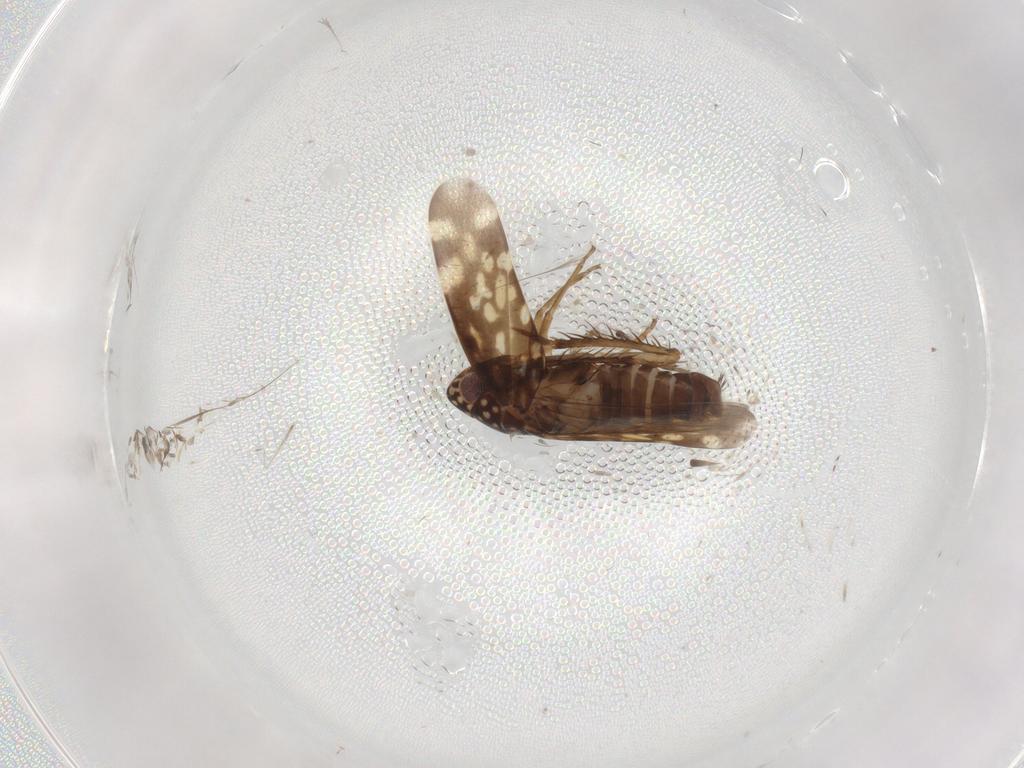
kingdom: Animalia
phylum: Arthropoda
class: Insecta
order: Hemiptera
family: Cicadellidae
